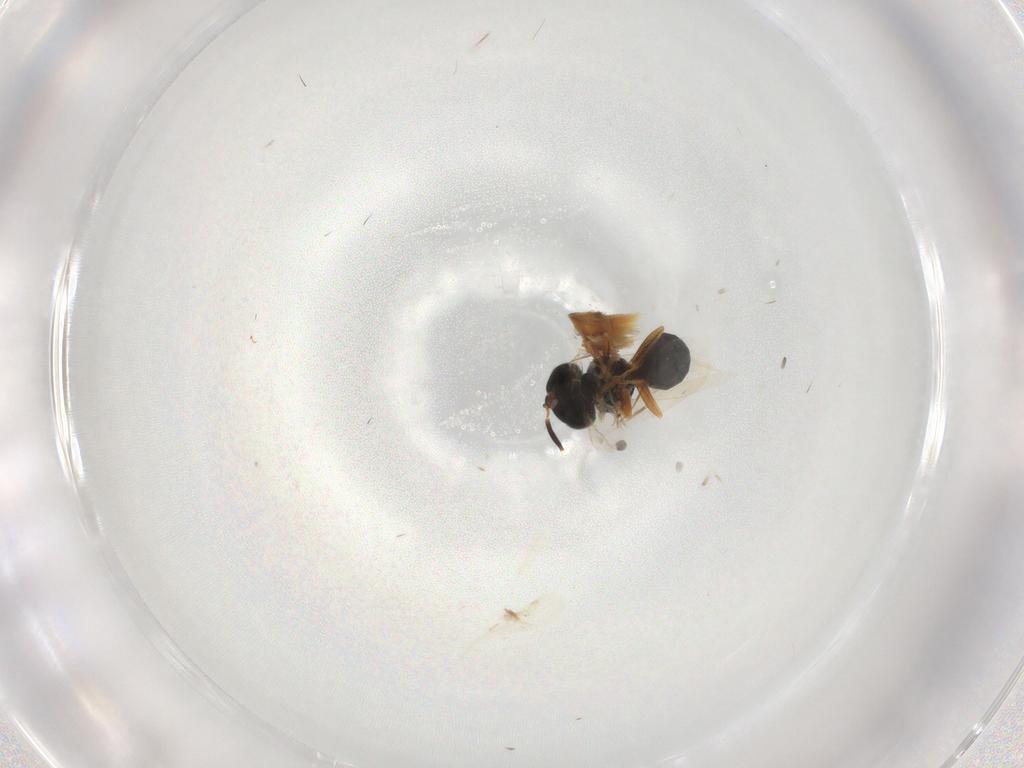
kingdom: Animalia
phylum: Arthropoda
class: Insecta
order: Hymenoptera
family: Scelionidae
